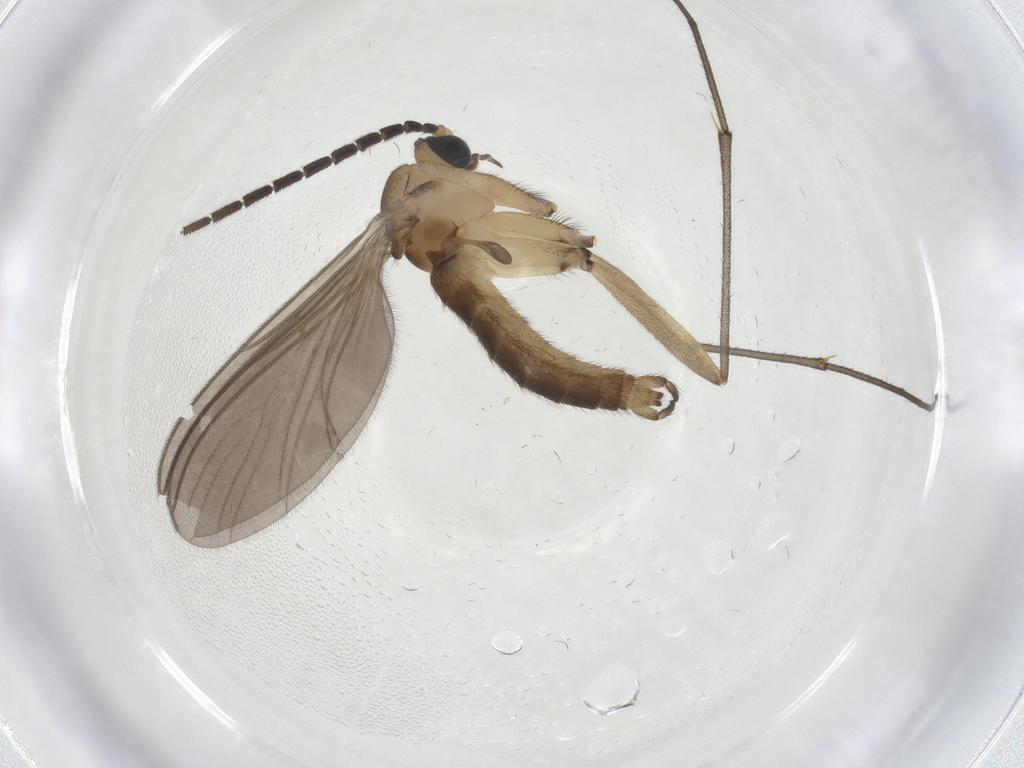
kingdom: Animalia
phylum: Arthropoda
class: Insecta
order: Diptera
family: Sciaridae
